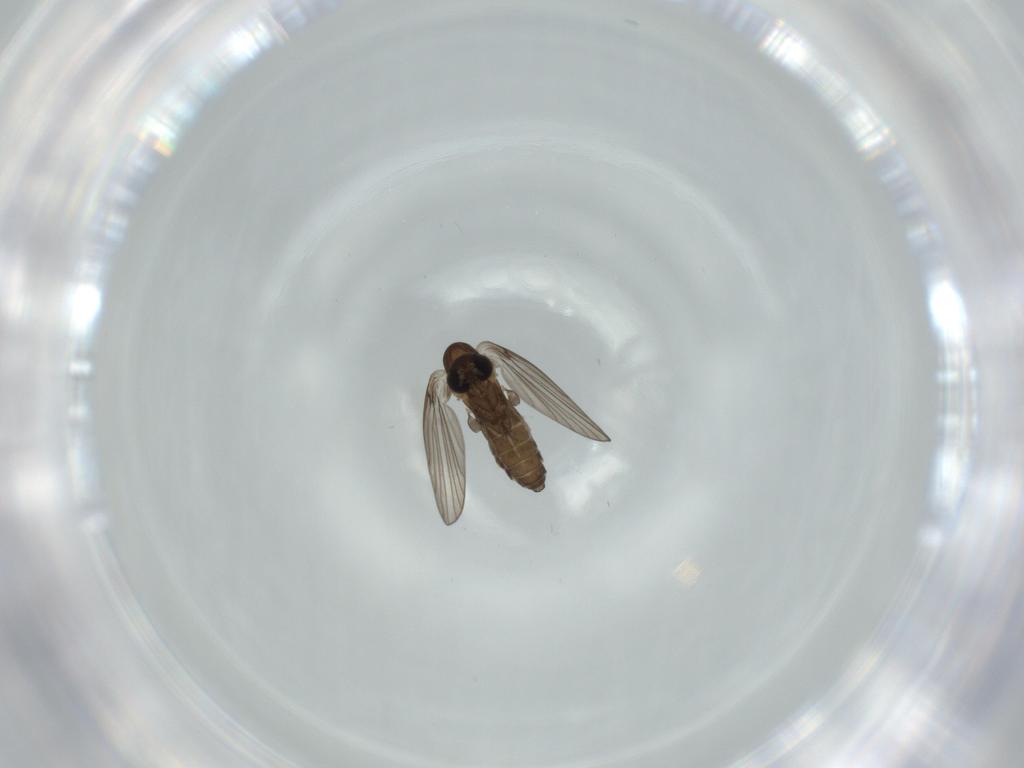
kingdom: Animalia
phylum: Arthropoda
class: Insecta
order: Diptera
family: Psychodidae
